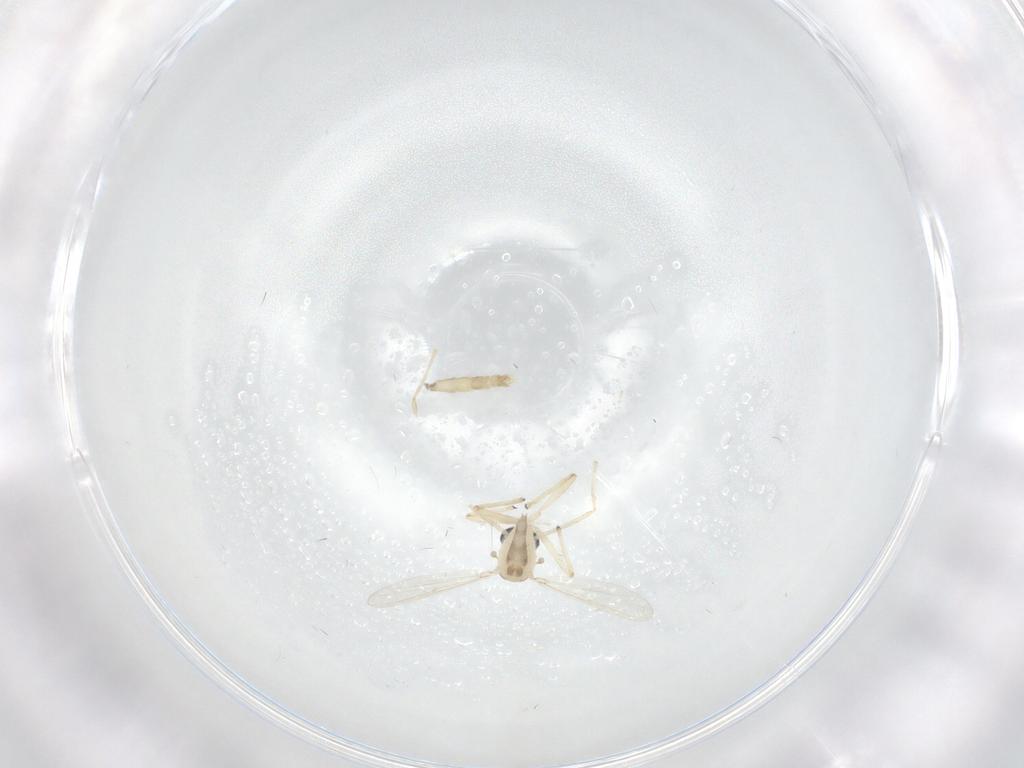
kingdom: Animalia
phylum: Arthropoda
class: Insecta
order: Diptera
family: Chironomidae
